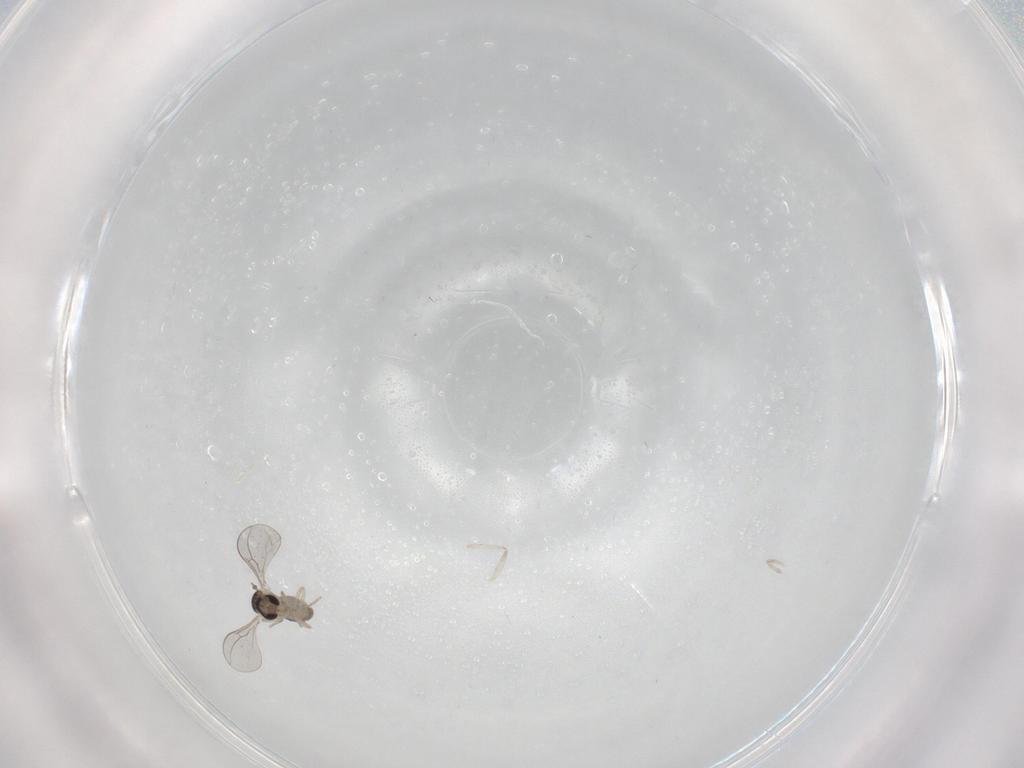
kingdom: Animalia
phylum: Arthropoda
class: Insecta
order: Diptera
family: Cecidomyiidae
